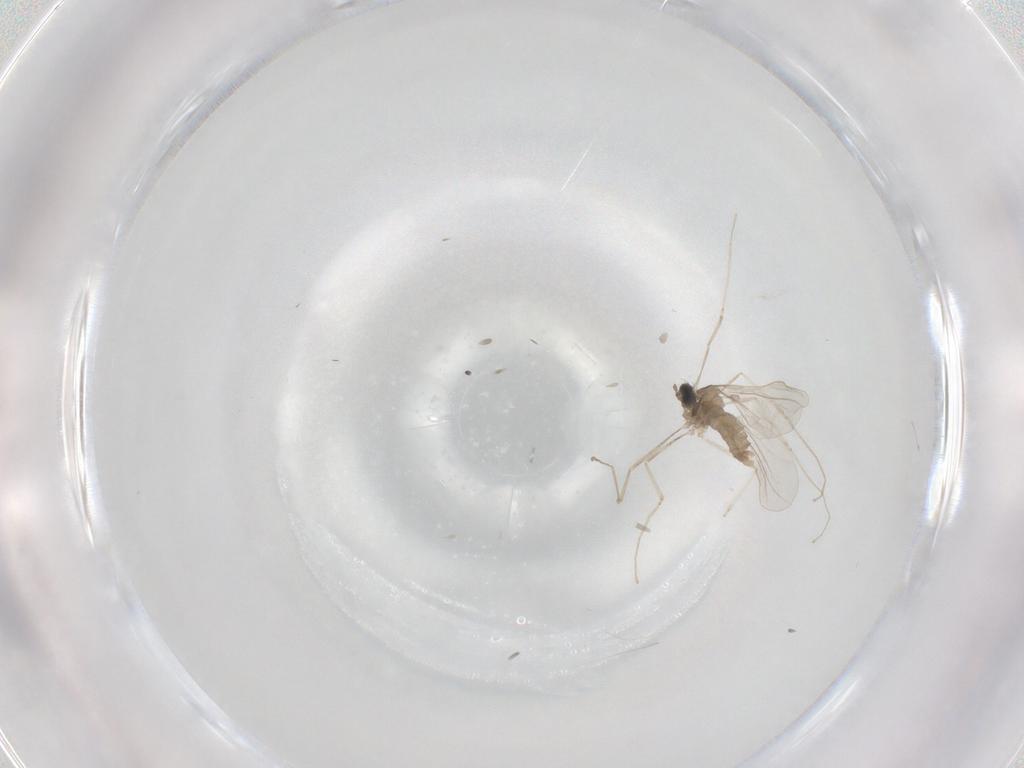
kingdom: Animalia
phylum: Arthropoda
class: Insecta
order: Diptera
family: Cecidomyiidae
